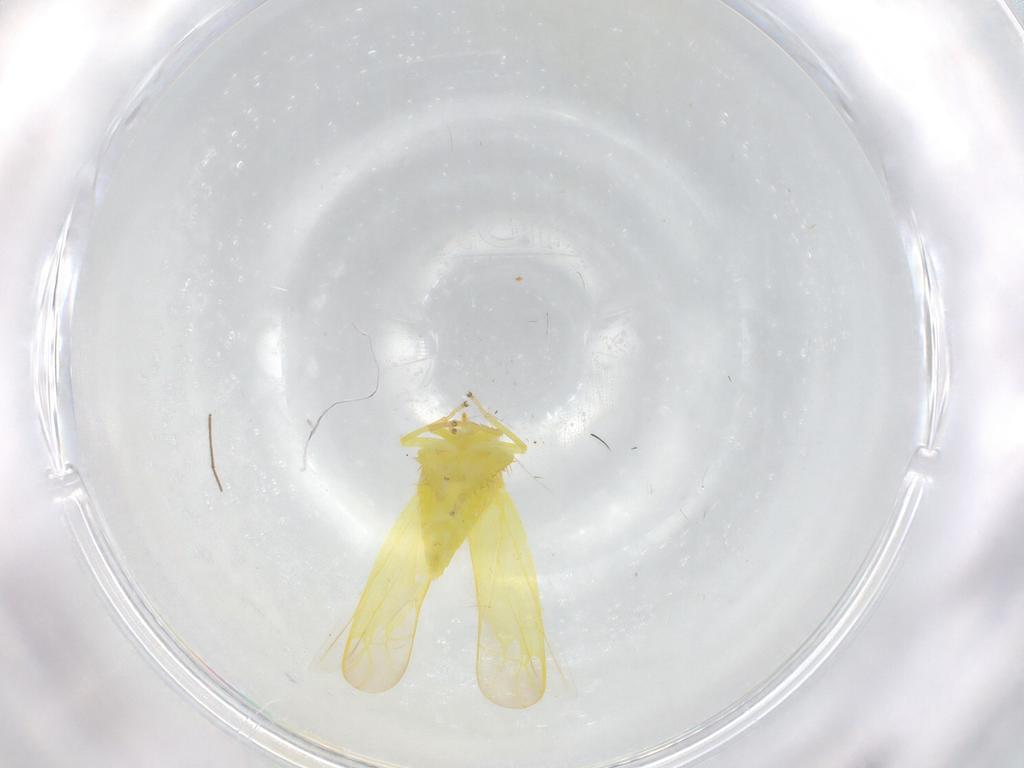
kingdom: Animalia
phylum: Arthropoda
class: Insecta
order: Hemiptera
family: Cicadellidae
